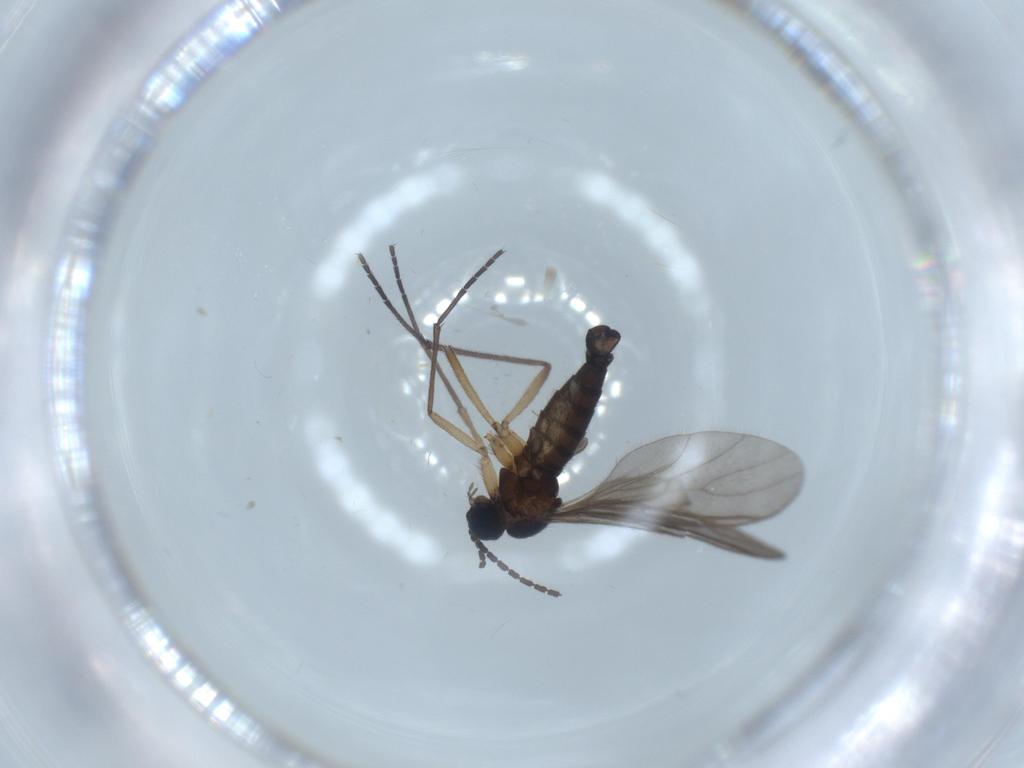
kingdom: Animalia
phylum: Arthropoda
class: Insecta
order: Diptera
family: Sciaridae
